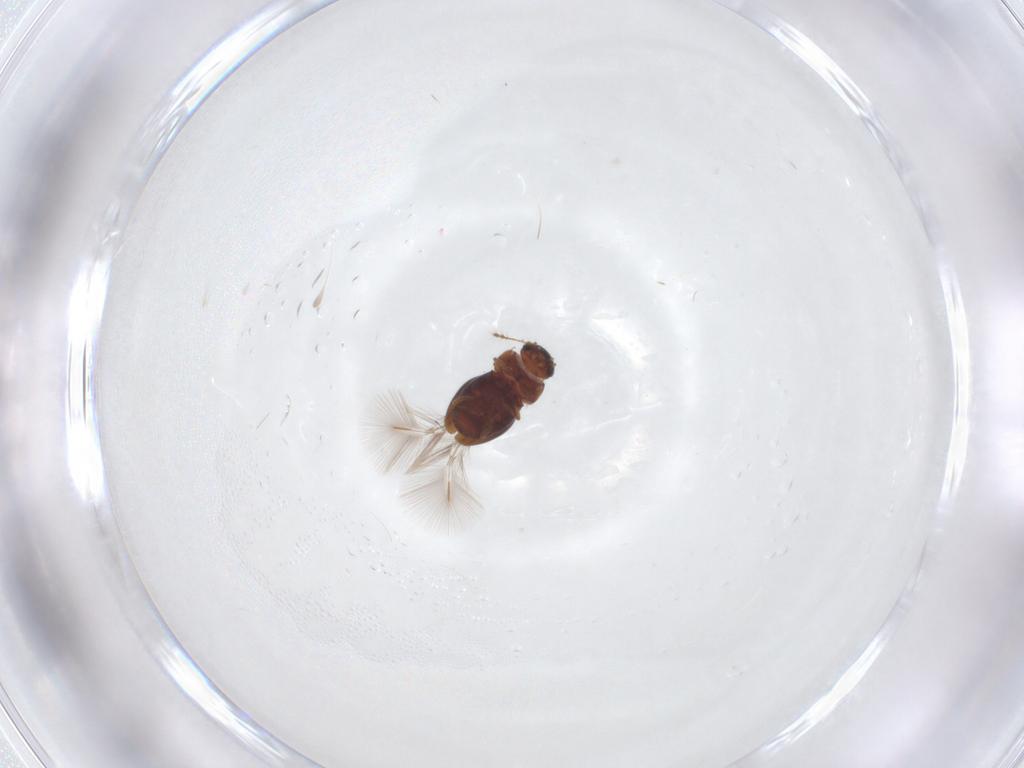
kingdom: Animalia
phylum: Arthropoda
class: Insecta
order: Coleoptera
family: Ptiliidae
